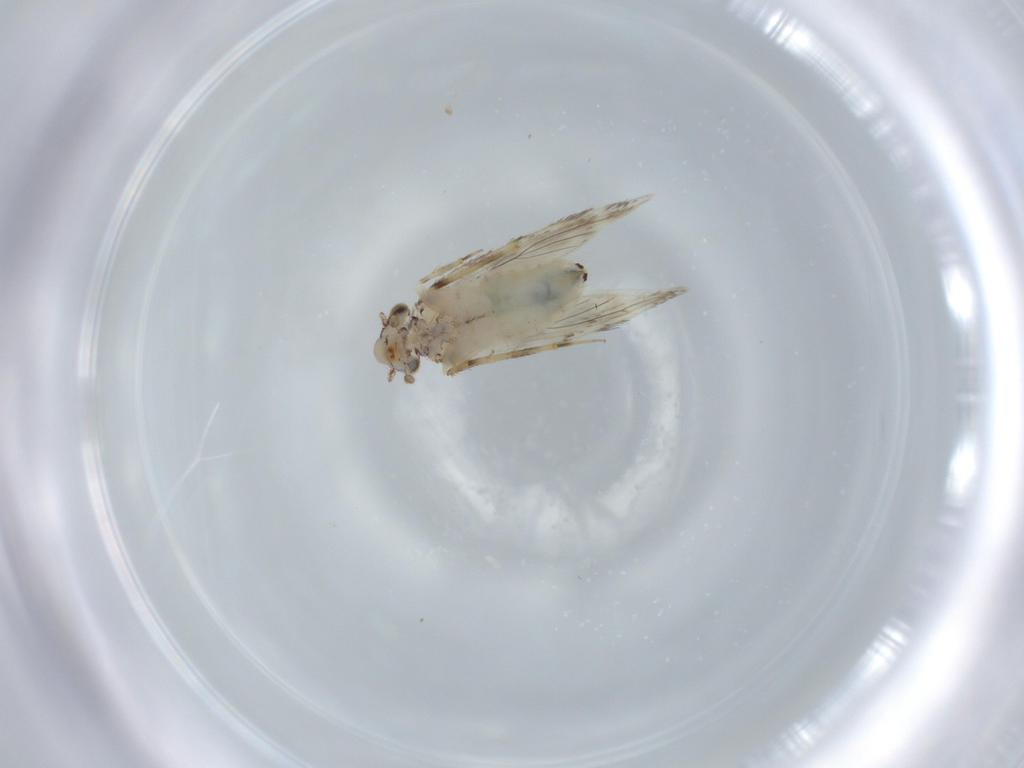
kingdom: Animalia
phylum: Arthropoda
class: Insecta
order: Psocodea
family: Lepidopsocidae
